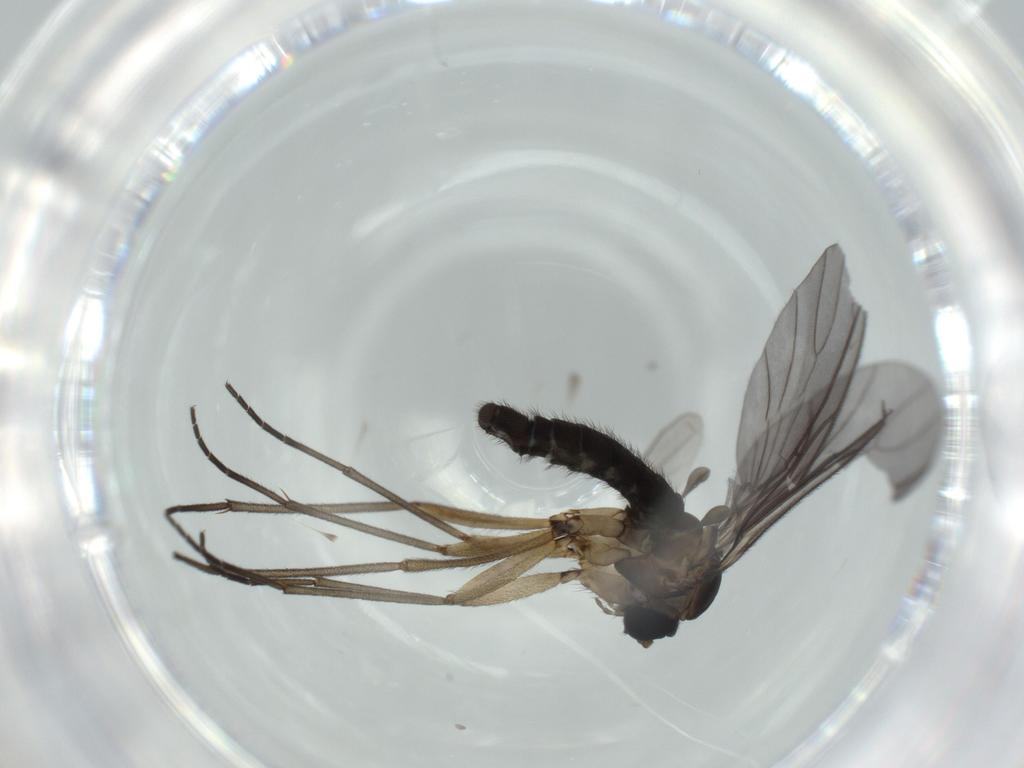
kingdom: Animalia
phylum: Arthropoda
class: Insecta
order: Diptera
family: Sciaridae
